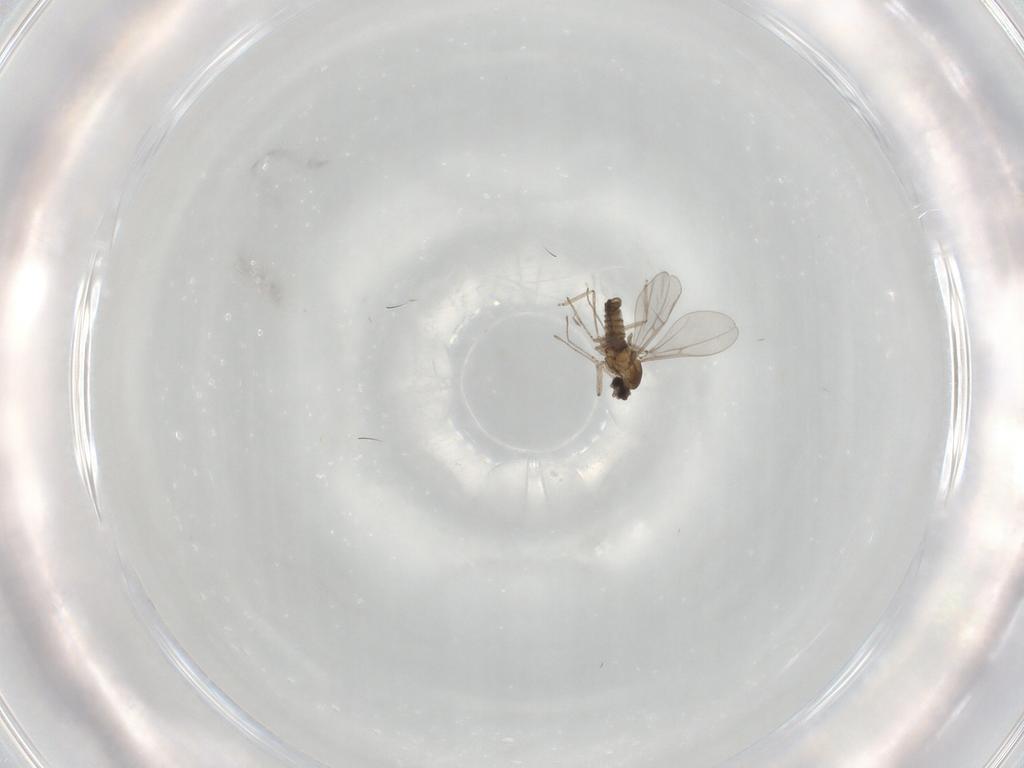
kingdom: Animalia
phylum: Arthropoda
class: Insecta
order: Diptera
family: Cecidomyiidae
